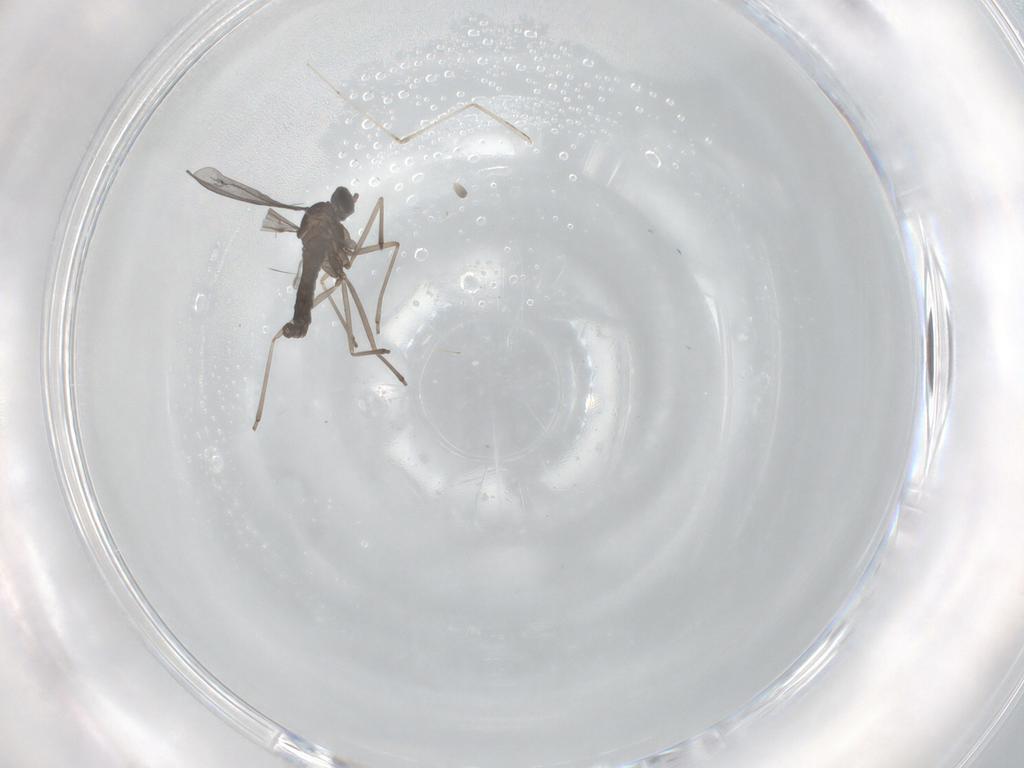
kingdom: Animalia
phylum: Arthropoda
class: Insecta
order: Diptera
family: Cecidomyiidae
